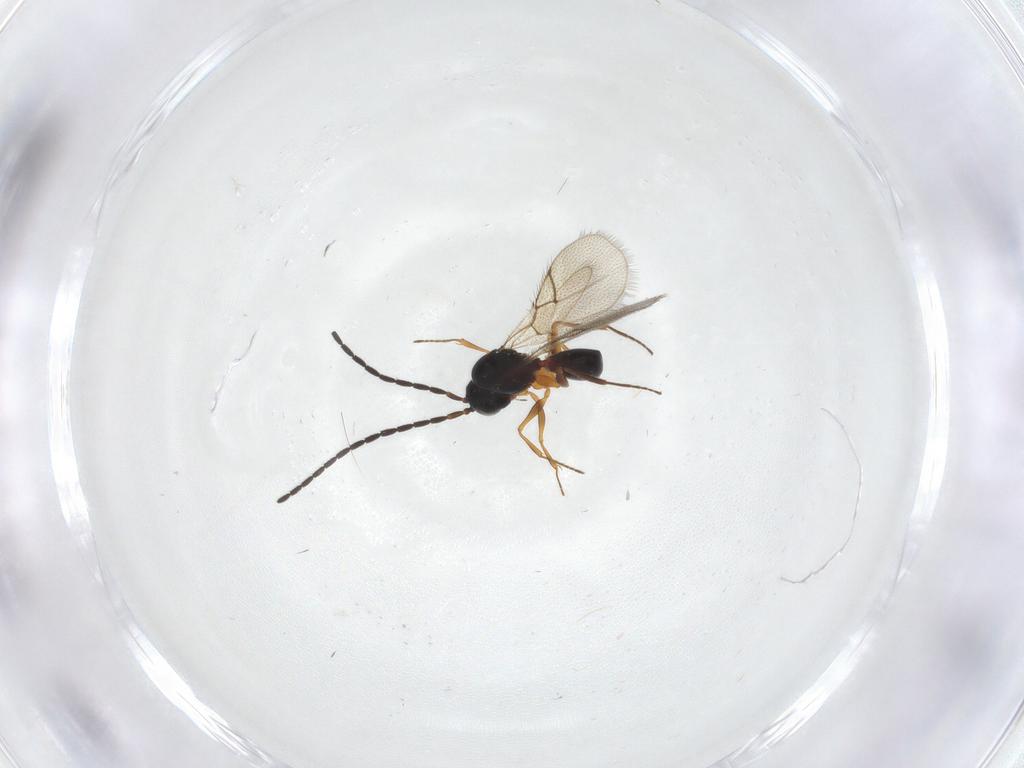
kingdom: Animalia
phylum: Arthropoda
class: Insecta
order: Hymenoptera
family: Figitidae
